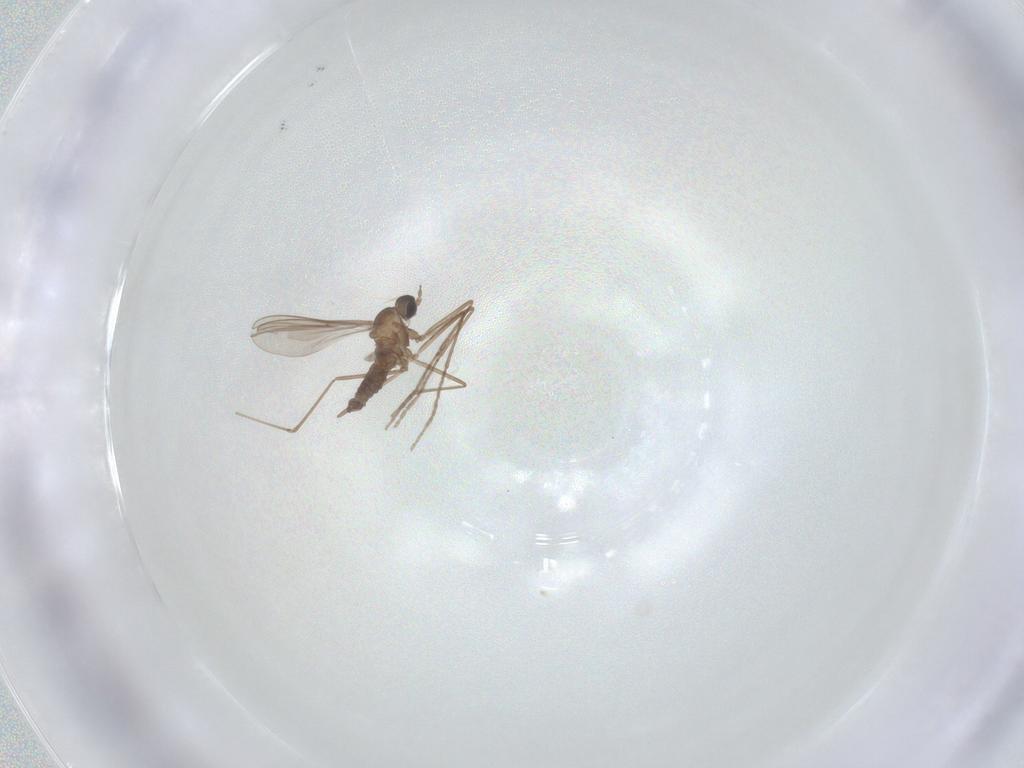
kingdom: Animalia
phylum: Arthropoda
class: Insecta
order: Diptera
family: Cecidomyiidae
